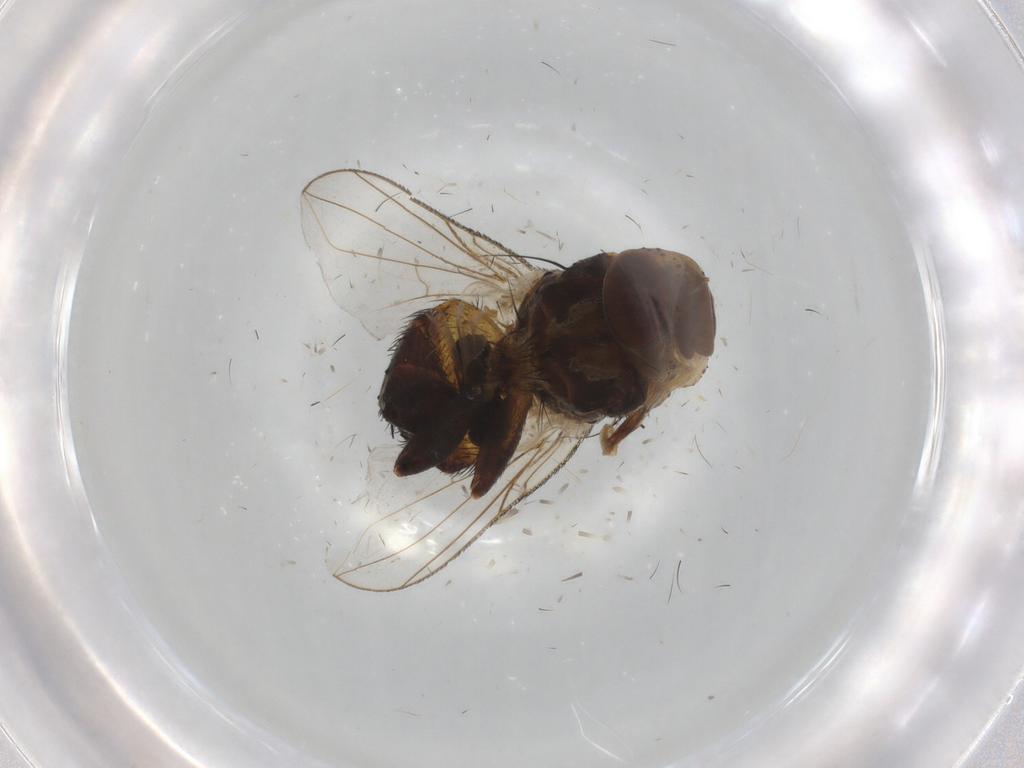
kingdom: Animalia
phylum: Arthropoda
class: Insecta
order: Diptera
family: Glossinidae
